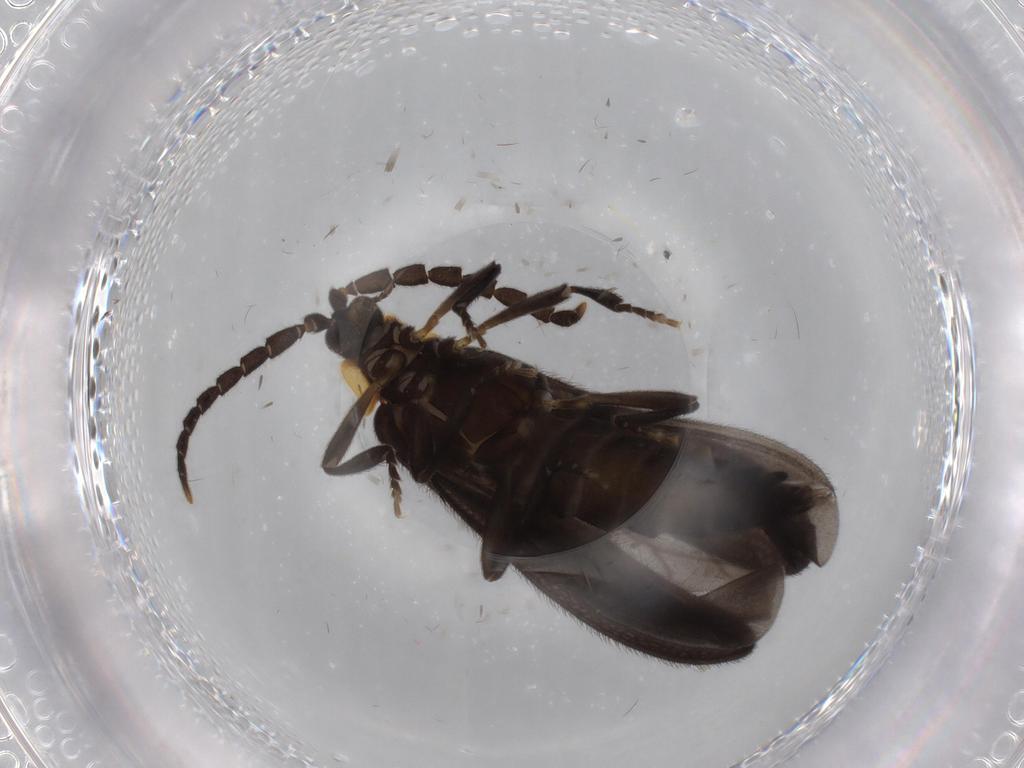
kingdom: Animalia
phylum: Arthropoda
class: Insecta
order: Coleoptera
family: Lycidae
